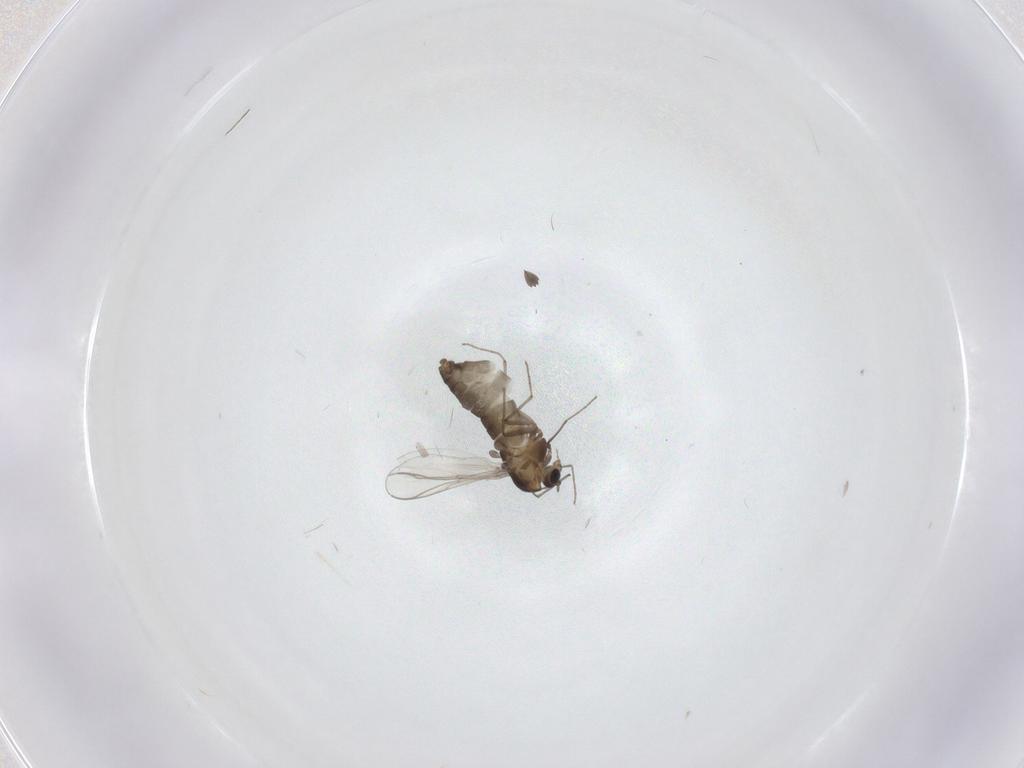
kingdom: Animalia
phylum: Arthropoda
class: Insecta
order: Diptera
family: Chironomidae
